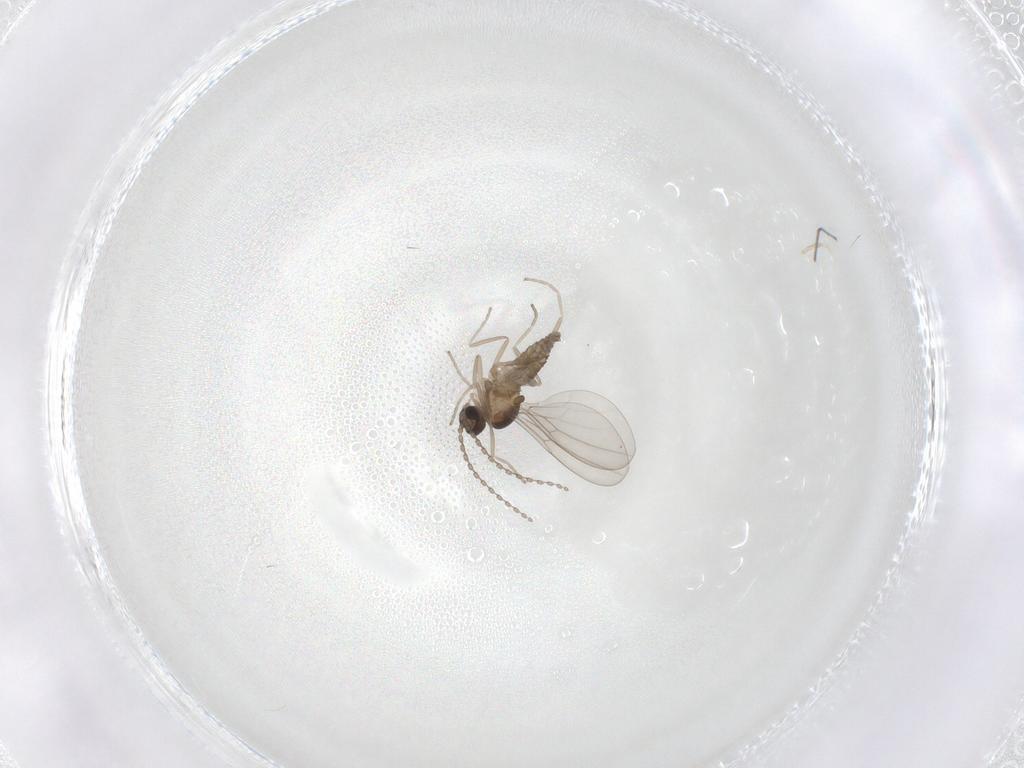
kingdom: Animalia
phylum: Arthropoda
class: Insecta
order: Diptera
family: Cecidomyiidae
